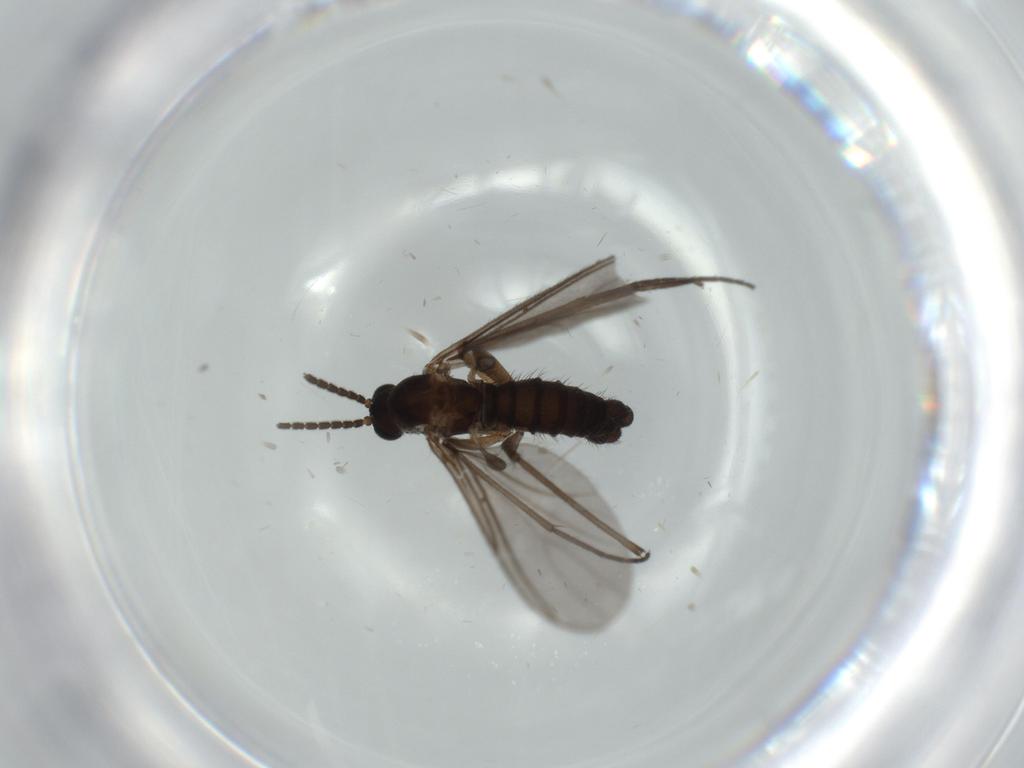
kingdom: Animalia
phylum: Arthropoda
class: Insecta
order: Diptera
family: Sciaridae
